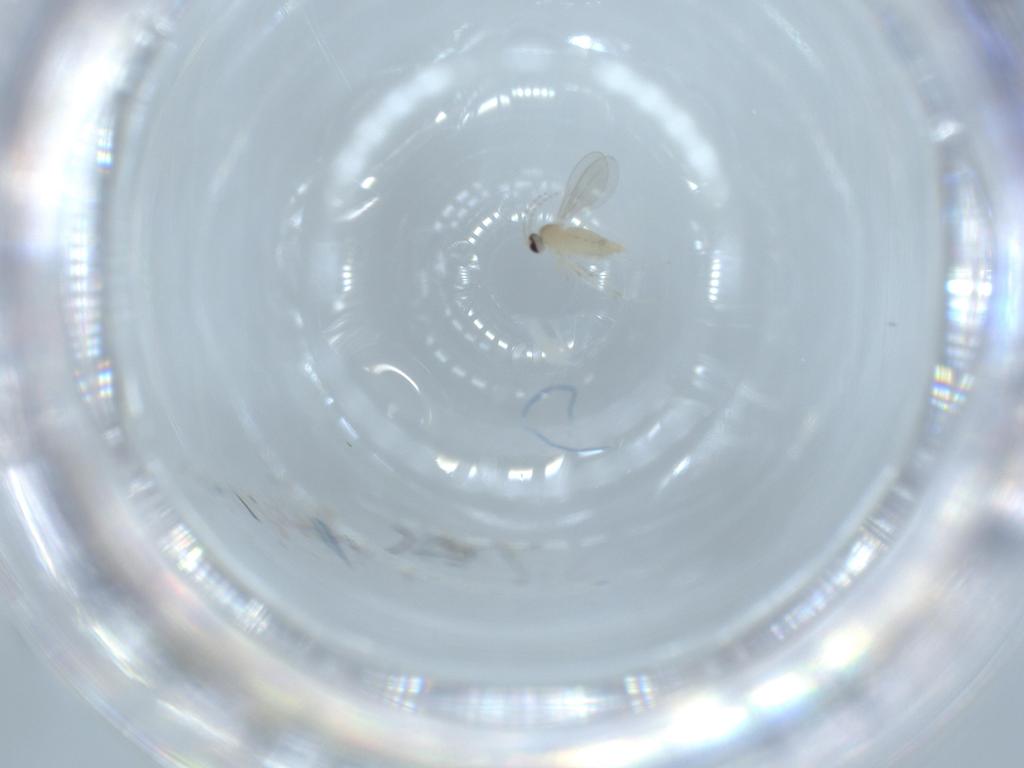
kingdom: Animalia
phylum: Arthropoda
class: Insecta
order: Diptera
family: Cecidomyiidae
